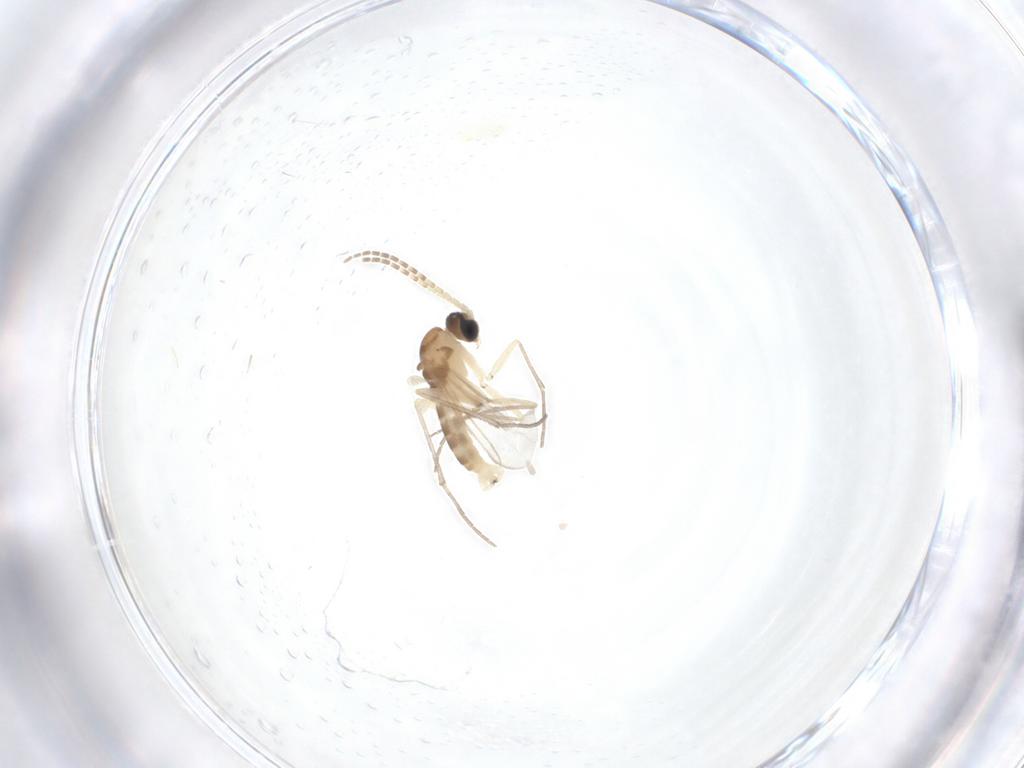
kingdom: Animalia
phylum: Arthropoda
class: Insecta
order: Diptera
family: Sciaridae
